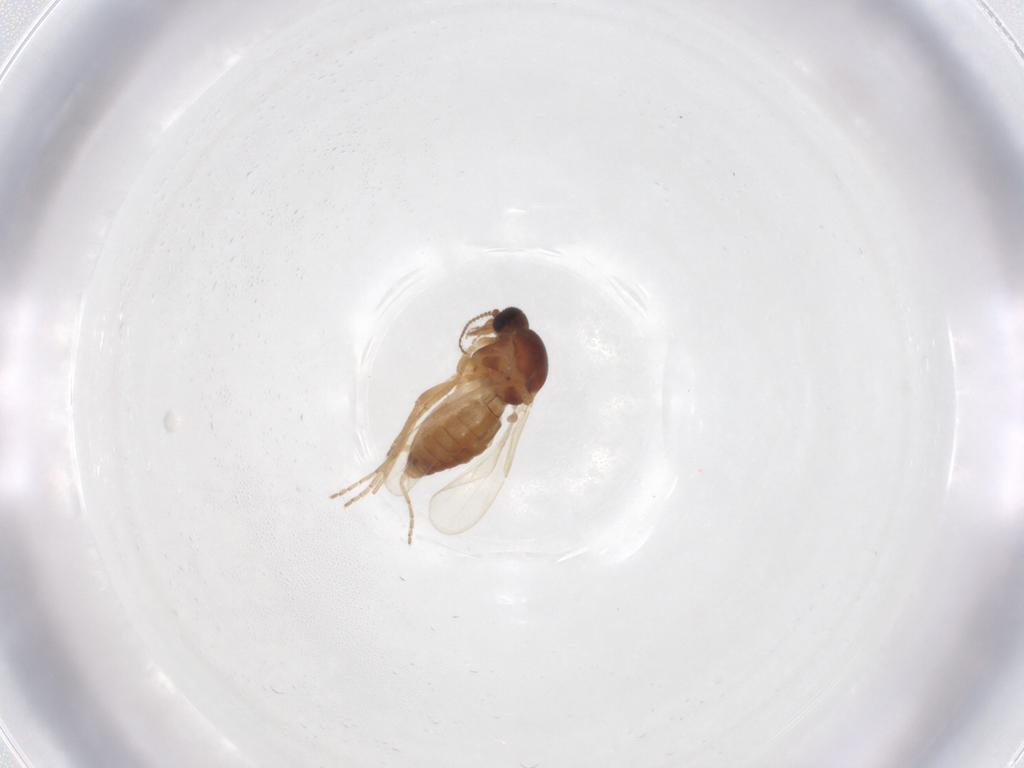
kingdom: Animalia
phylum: Arthropoda
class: Insecta
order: Diptera
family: Ceratopogonidae
